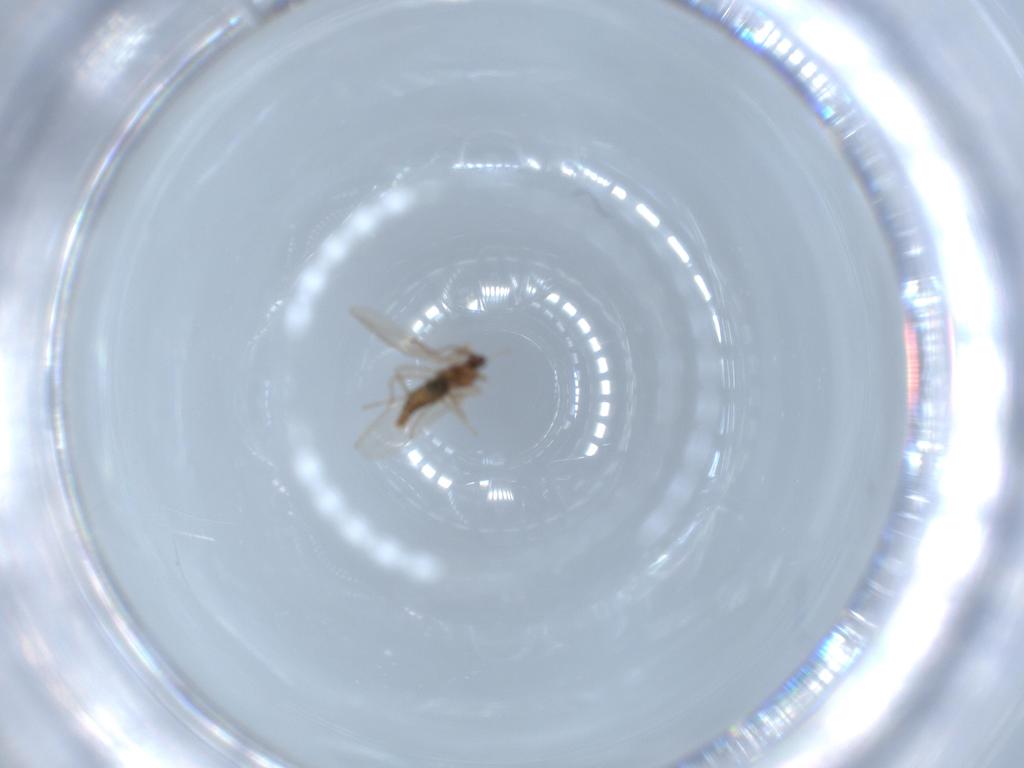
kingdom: Animalia
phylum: Arthropoda
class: Insecta
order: Diptera
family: Cecidomyiidae
